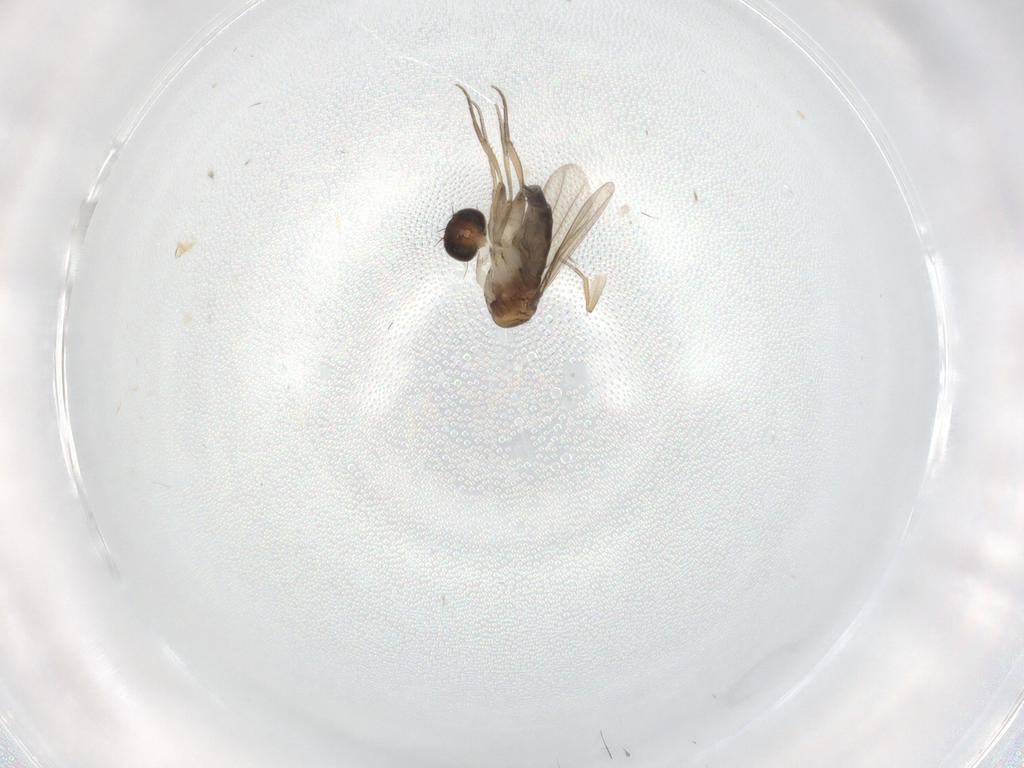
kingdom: Animalia
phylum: Arthropoda
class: Insecta
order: Diptera
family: Phoridae
